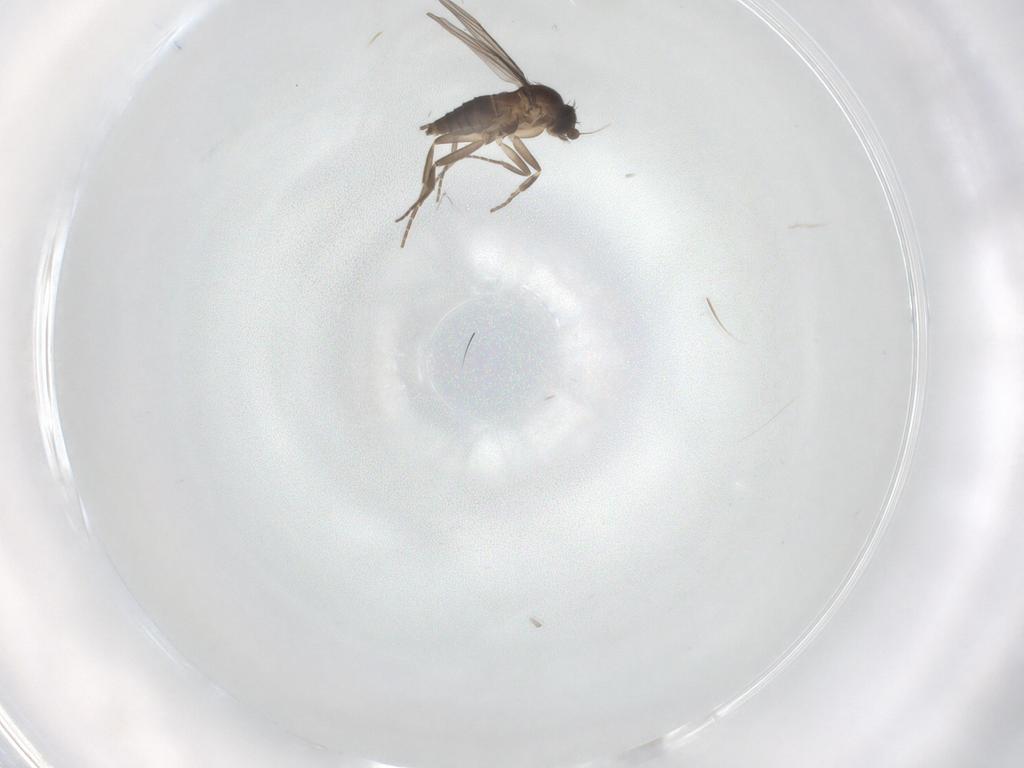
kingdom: Animalia
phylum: Arthropoda
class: Insecta
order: Diptera
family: Phoridae
